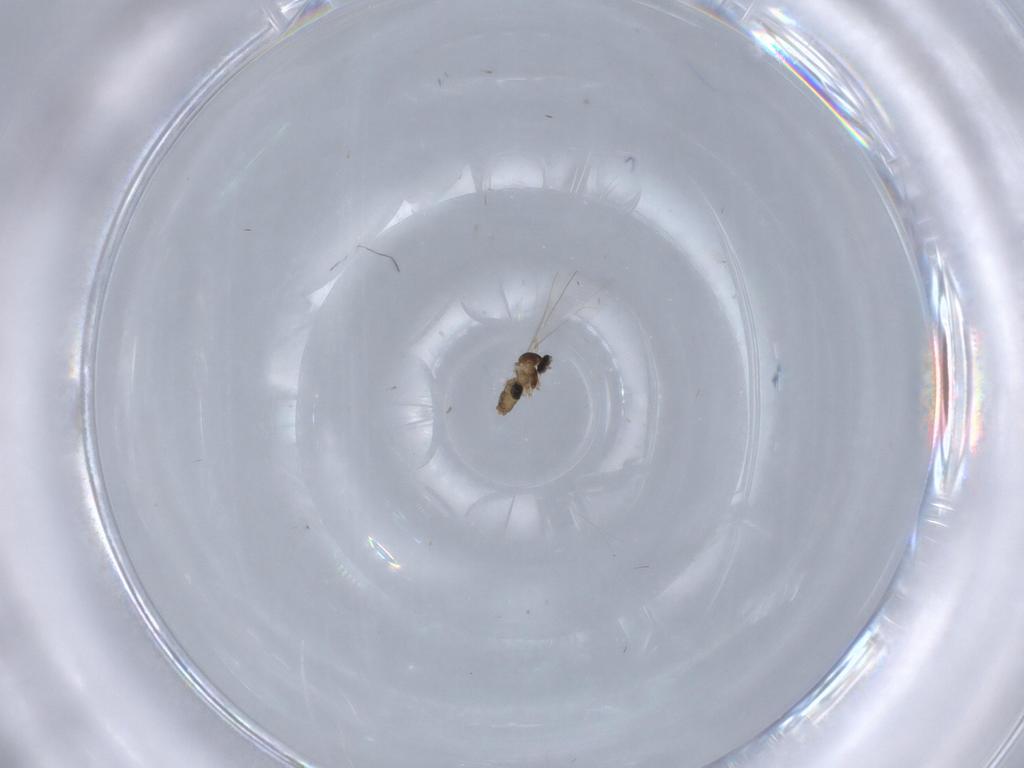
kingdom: Animalia
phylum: Arthropoda
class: Insecta
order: Diptera
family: Cecidomyiidae
